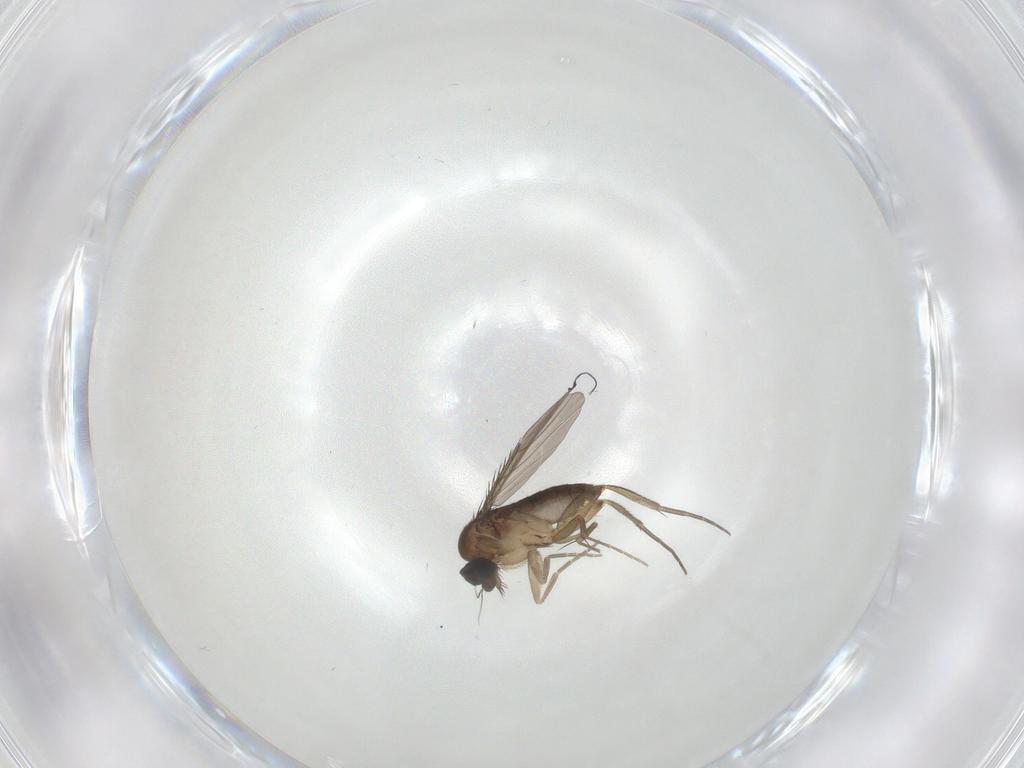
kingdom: Animalia
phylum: Arthropoda
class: Insecta
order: Diptera
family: Phoridae
